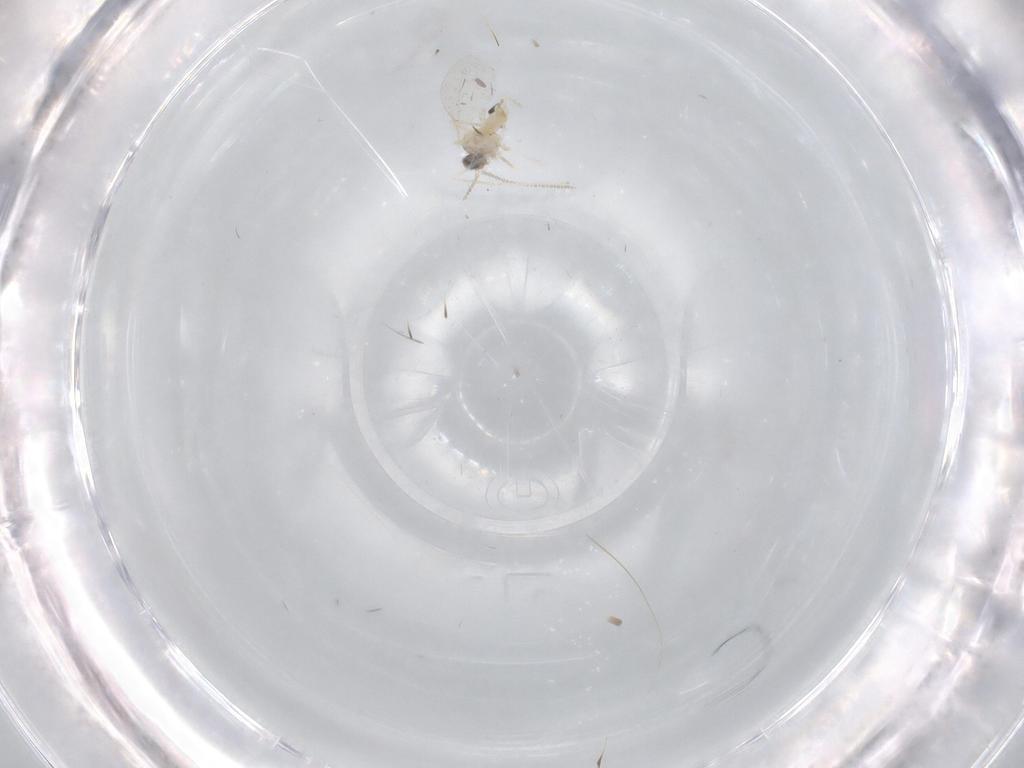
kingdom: Animalia
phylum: Arthropoda
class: Insecta
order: Diptera
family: Cecidomyiidae
